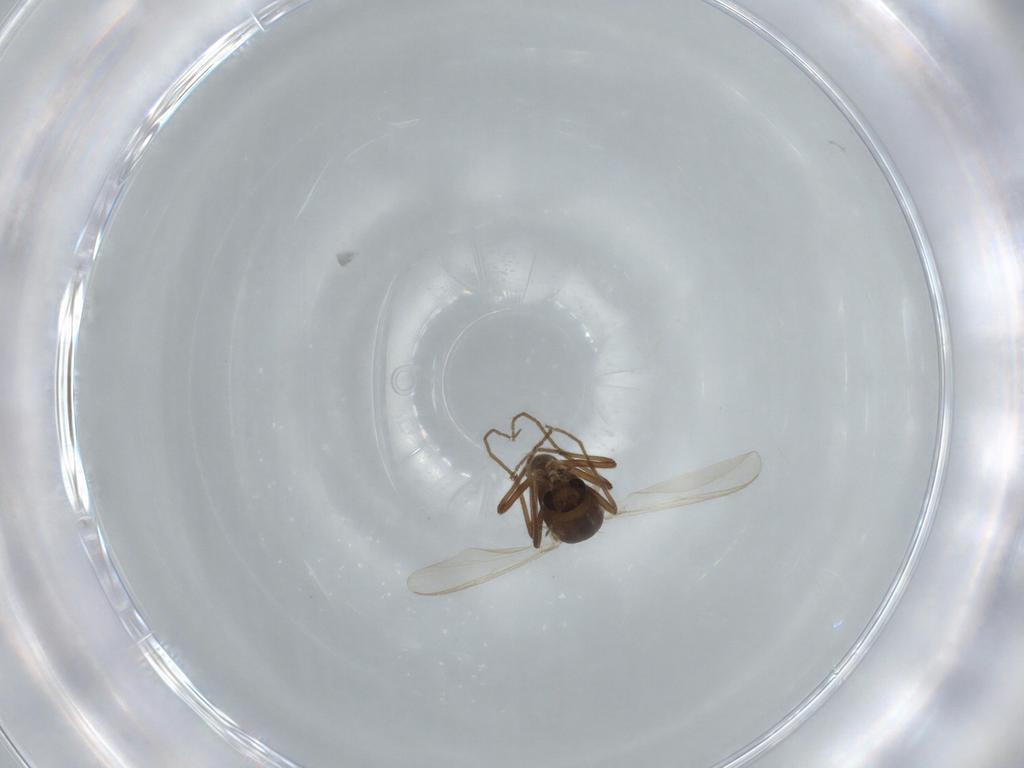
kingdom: Animalia
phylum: Arthropoda
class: Insecta
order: Diptera
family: Chironomidae
